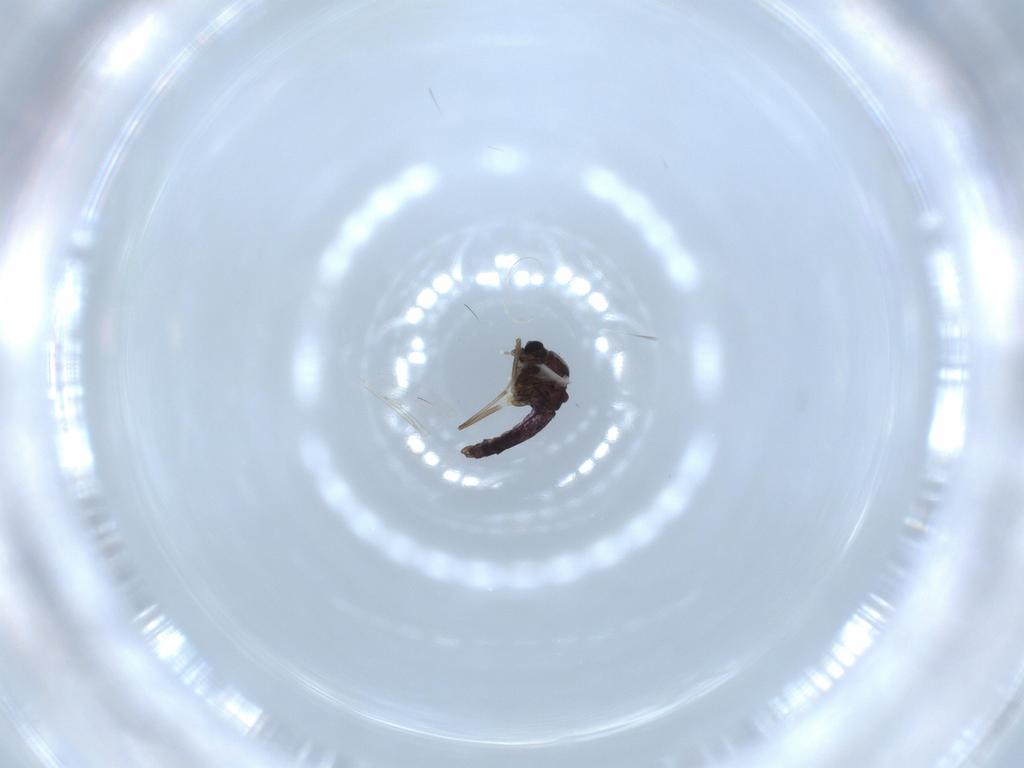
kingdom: Animalia
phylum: Arthropoda
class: Insecta
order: Diptera
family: Chironomidae
